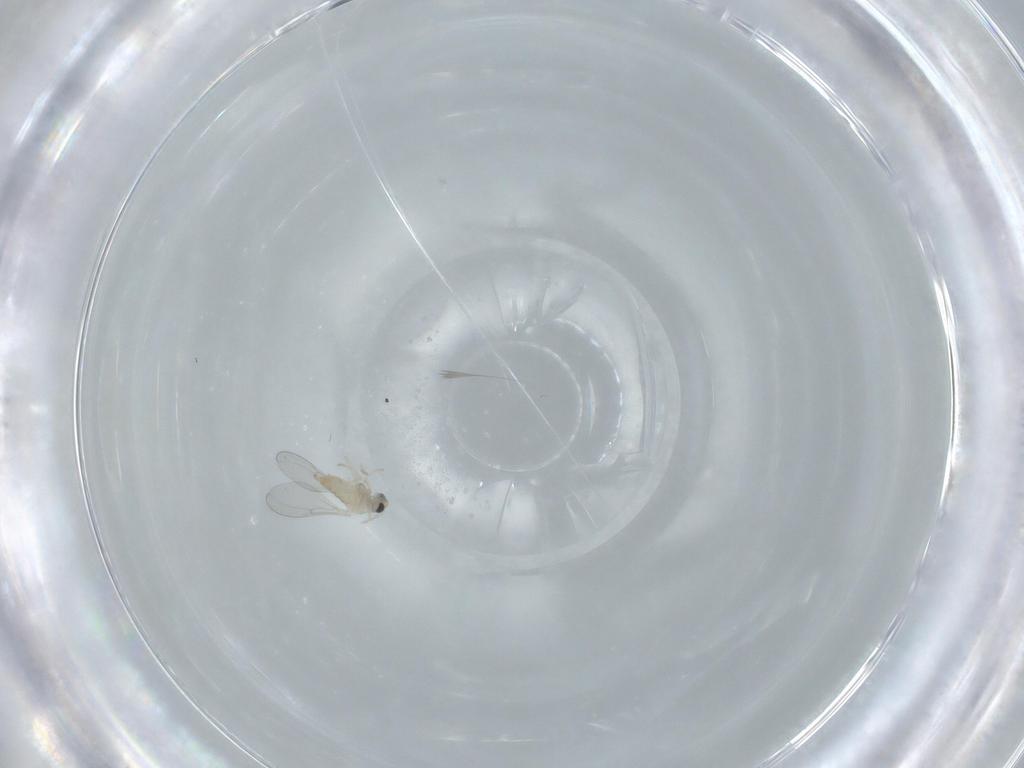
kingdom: Animalia
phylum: Arthropoda
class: Insecta
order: Diptera
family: Cecidomyiidae
